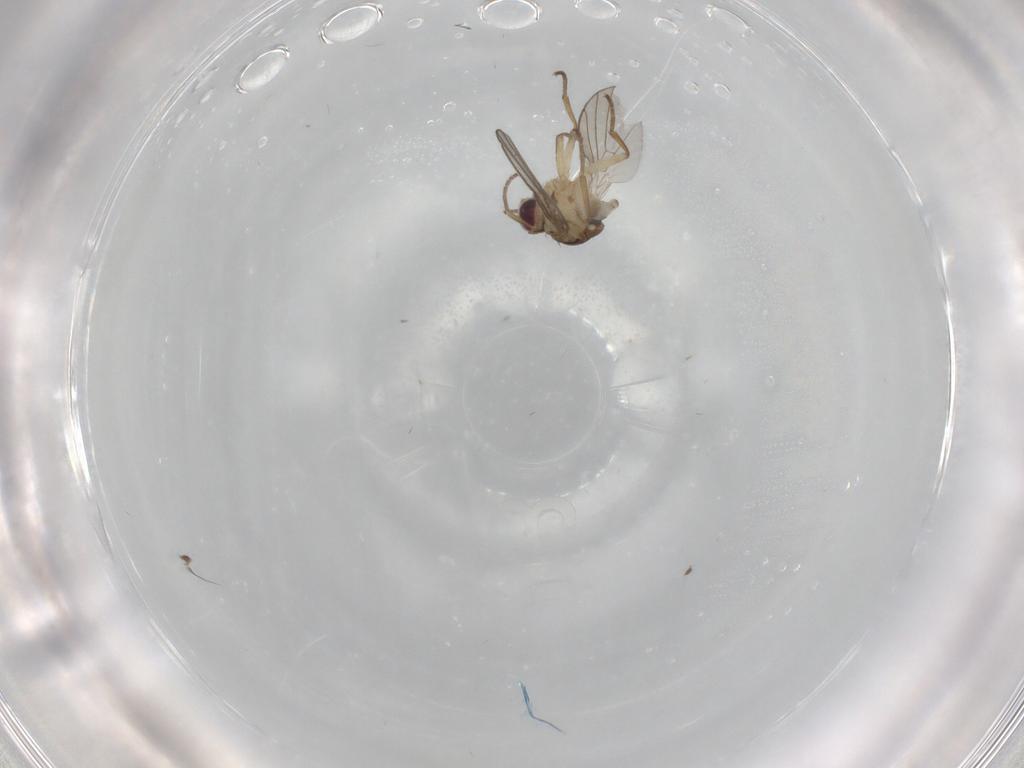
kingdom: Animalia
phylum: Arthropoda
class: Insecta
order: Diptera
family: Agromyzidae
